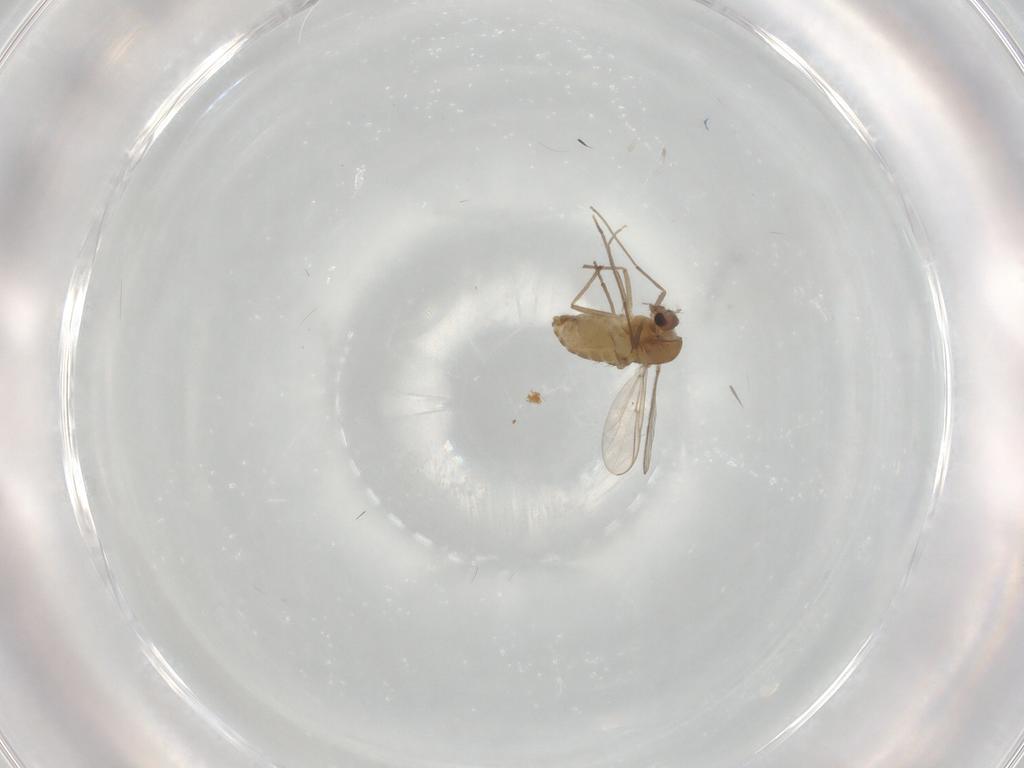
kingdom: Animalia
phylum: Arthropoda
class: Insecta
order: Diptera
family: Chironomidae
